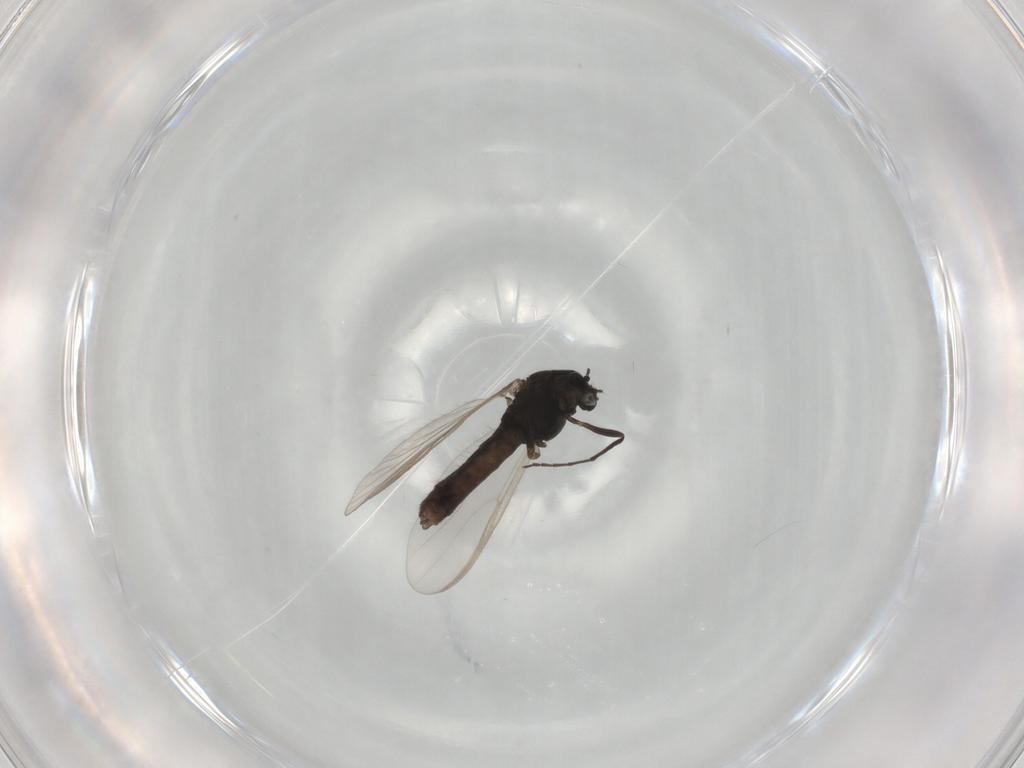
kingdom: Animalia
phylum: Arthropoda
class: Insecta
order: Diptera
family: Chironomidae
